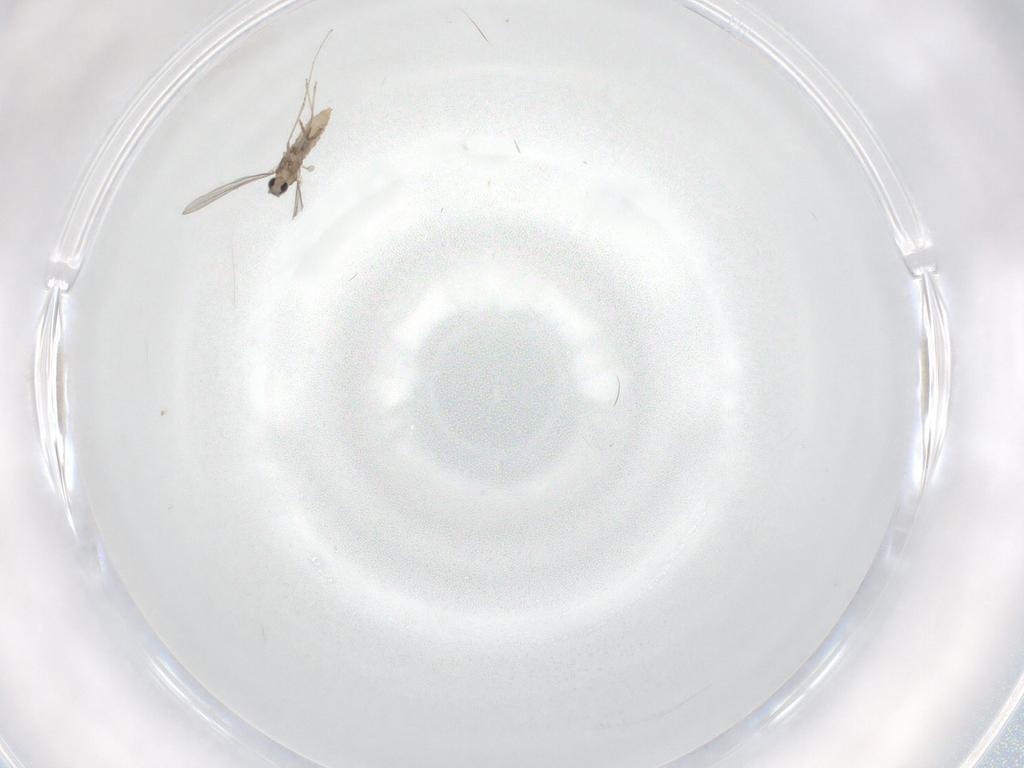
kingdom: Animalia
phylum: Arthropoda
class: Insecta
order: Diptera
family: Cecidomyiidae
